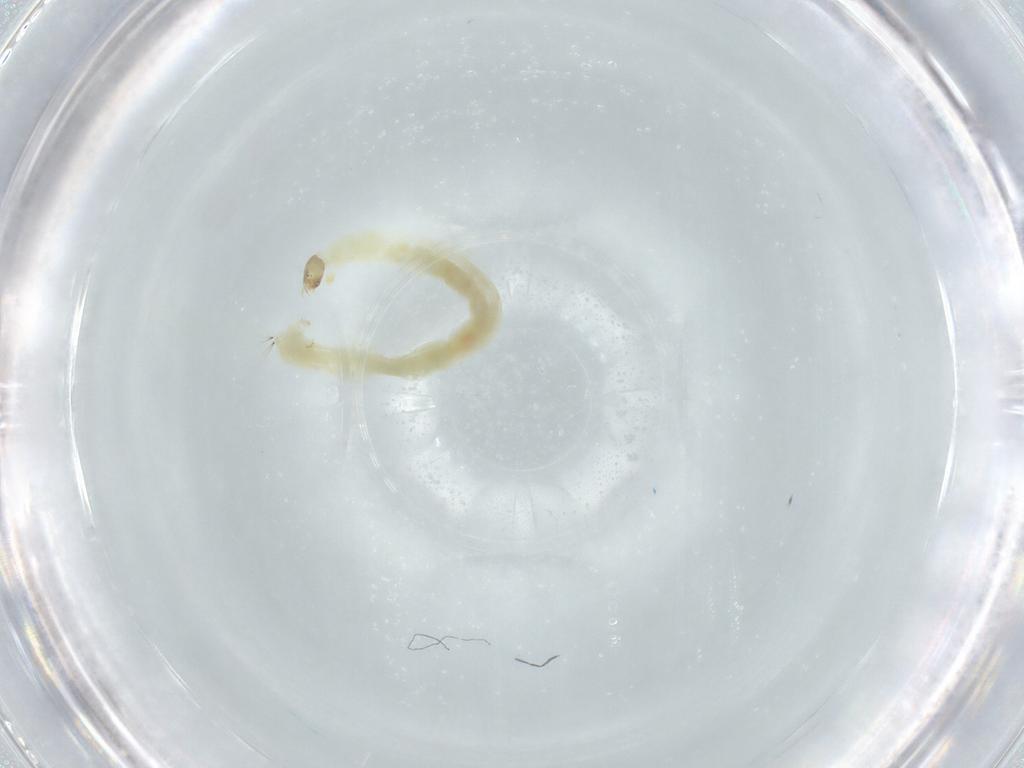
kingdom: Animalia
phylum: Arthropoda
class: Insecta
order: Diptera
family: Chironomidae
